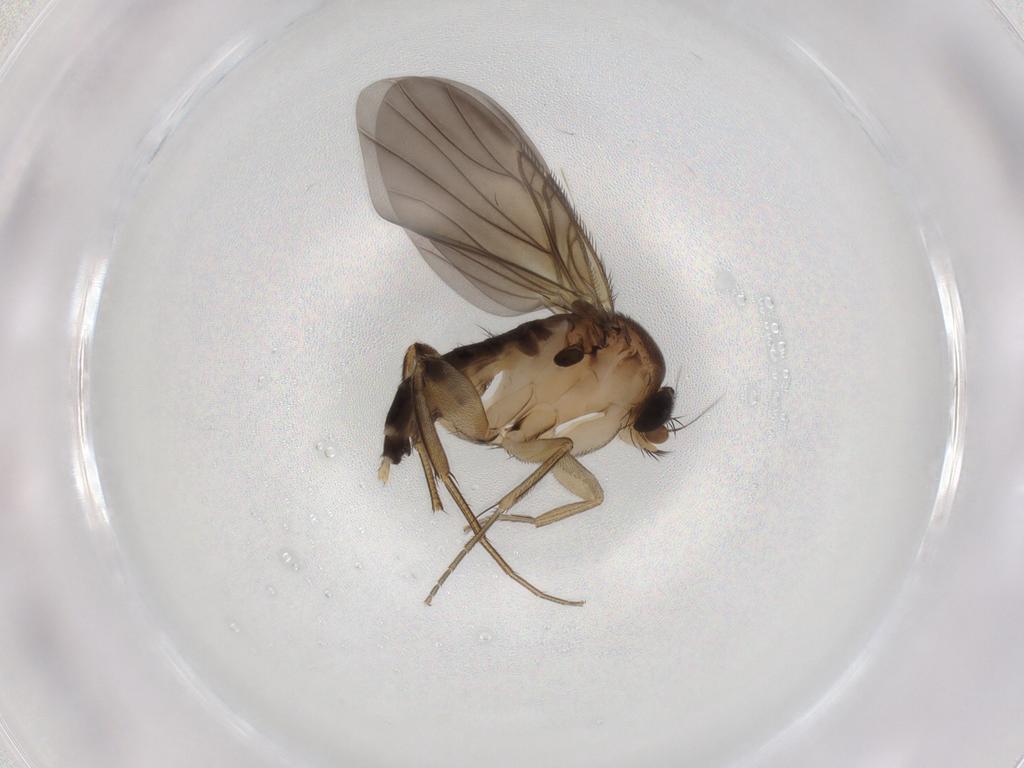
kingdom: Animalia
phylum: Arthropoda
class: Insecta
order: Diptera
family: Phoridae
